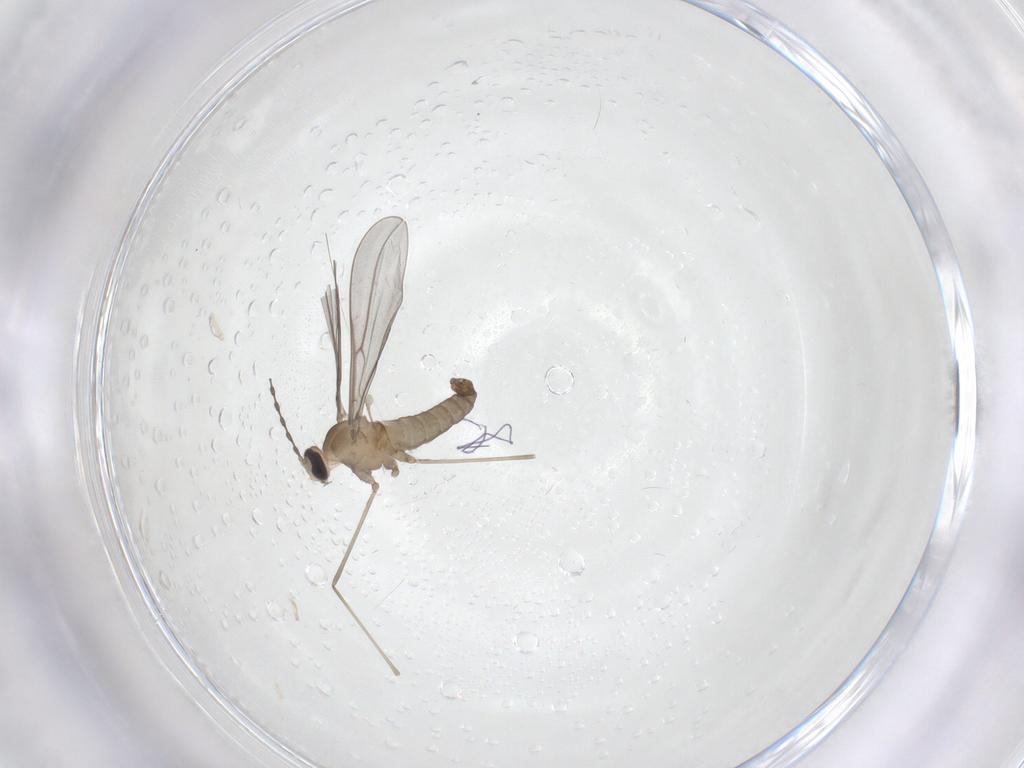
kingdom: Animalia
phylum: Arthropoda
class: Insecta
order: Diptera
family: Cecidomyiidae
